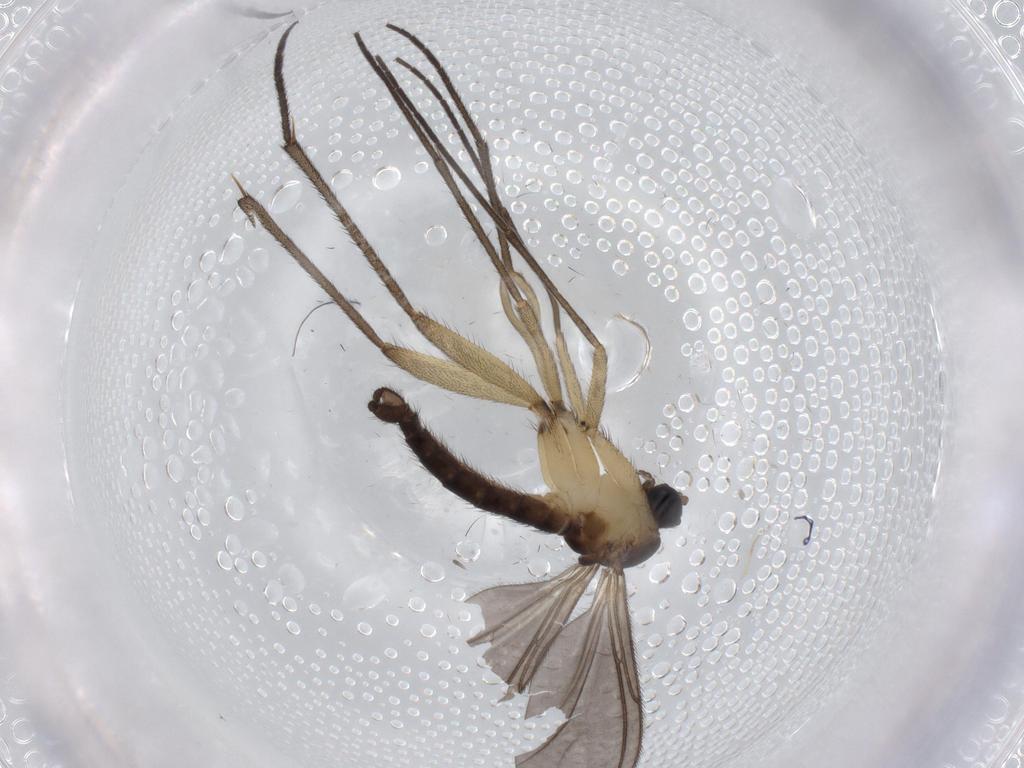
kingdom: Animalia
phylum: Arthropoda
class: Insecta
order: Diptera
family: Sciaridae
